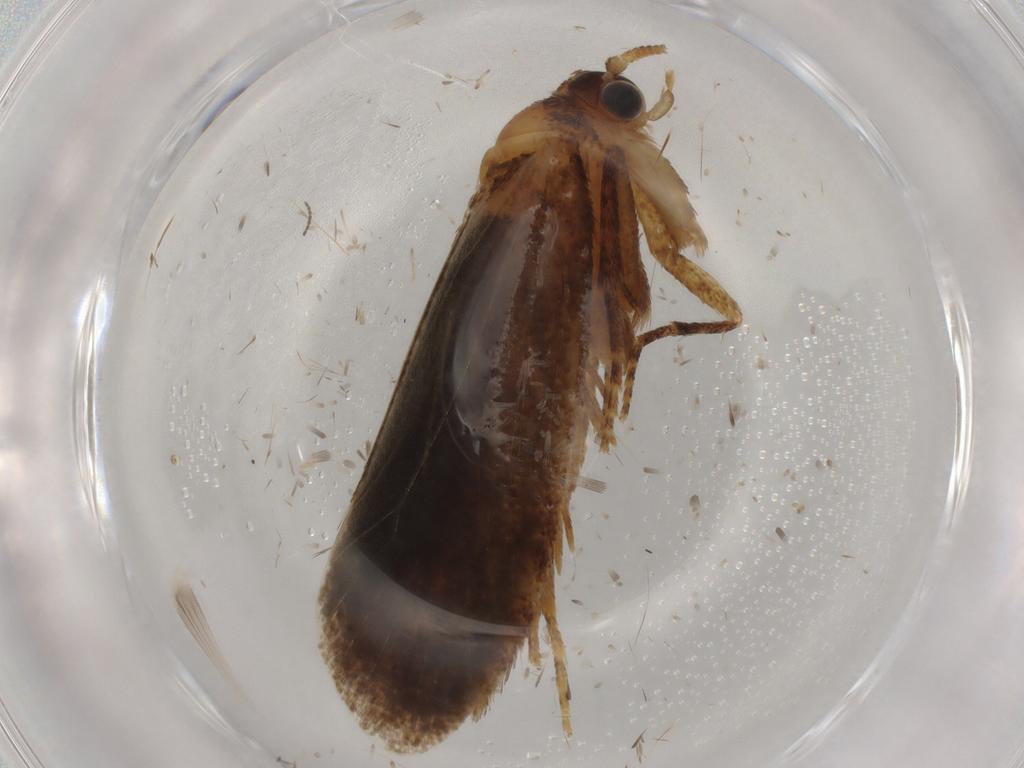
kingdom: Animalia
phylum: Arthropoda
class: Insecta
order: Lepidoptera
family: Nepticulidae
